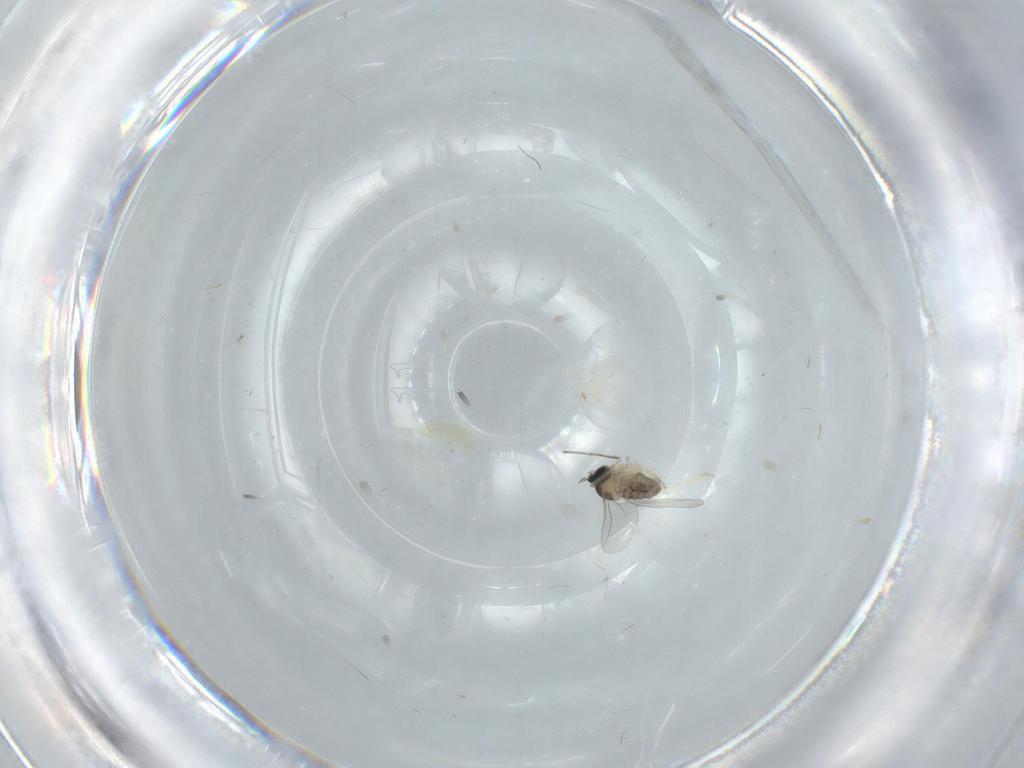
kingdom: Animalia
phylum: Arthropoda
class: Insecta
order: Diptera
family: Cecidomyiidae
